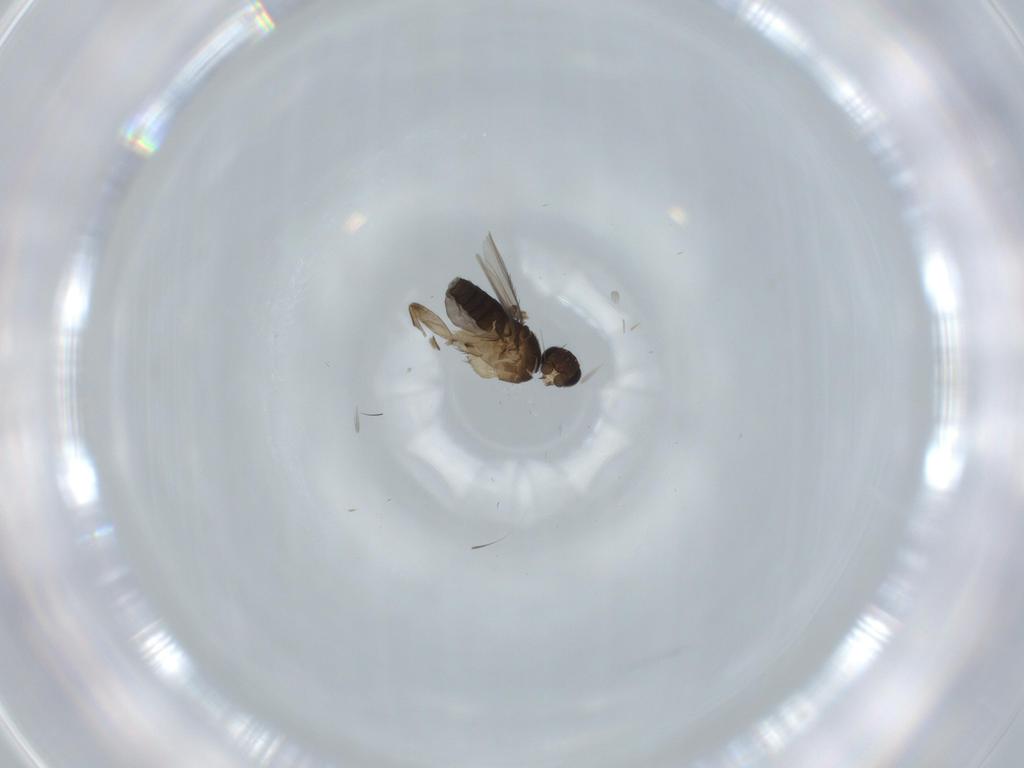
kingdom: Animalia
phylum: Arthropoda
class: Insecta
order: Diptera
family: Phoridae
